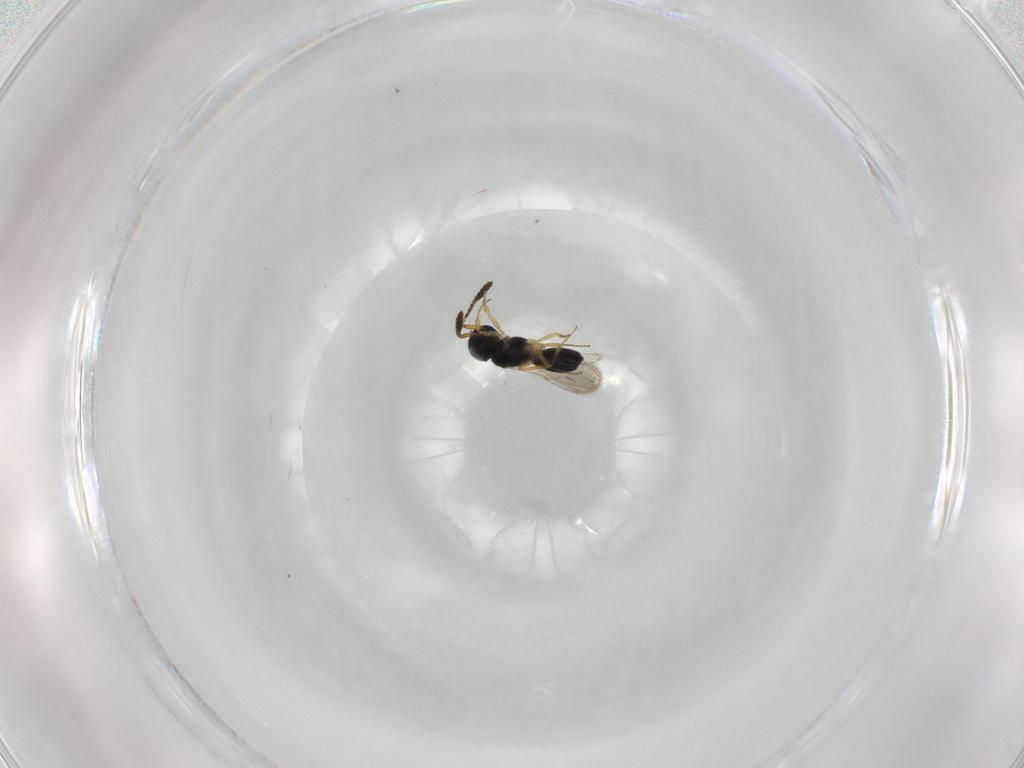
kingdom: Animalia
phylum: Arthropoda
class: Insecta
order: Hymenoptera
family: Scelionidae
